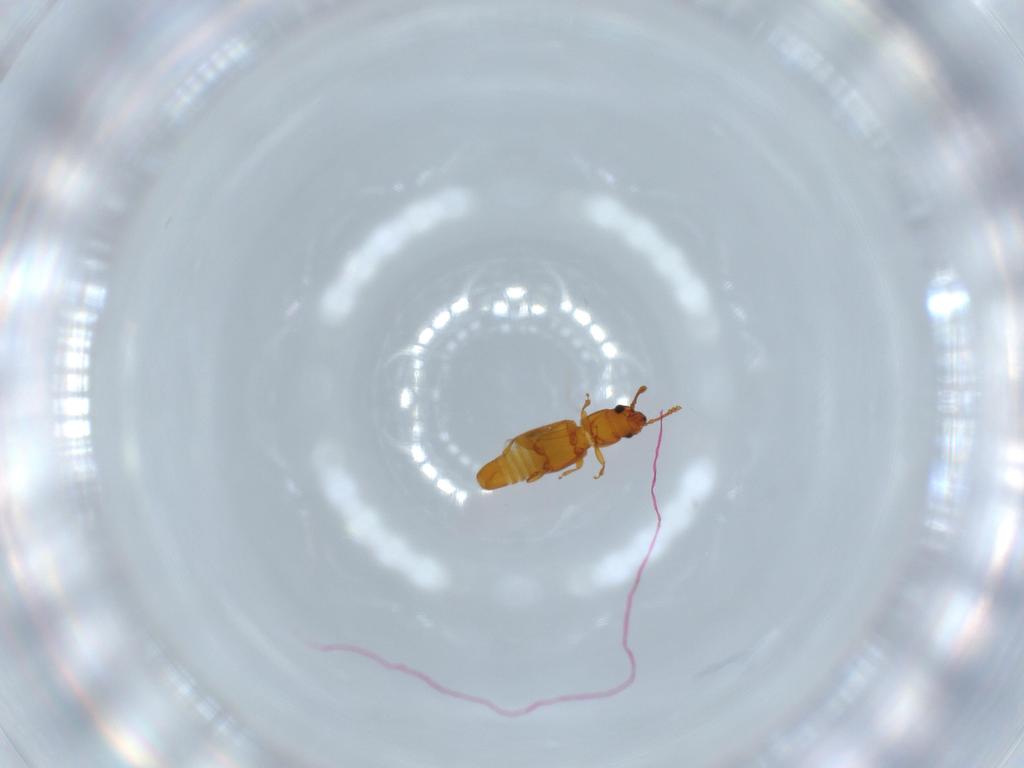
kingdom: Animalia
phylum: Arthropoda
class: Insecta
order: Coleoptera
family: Smicripidae
